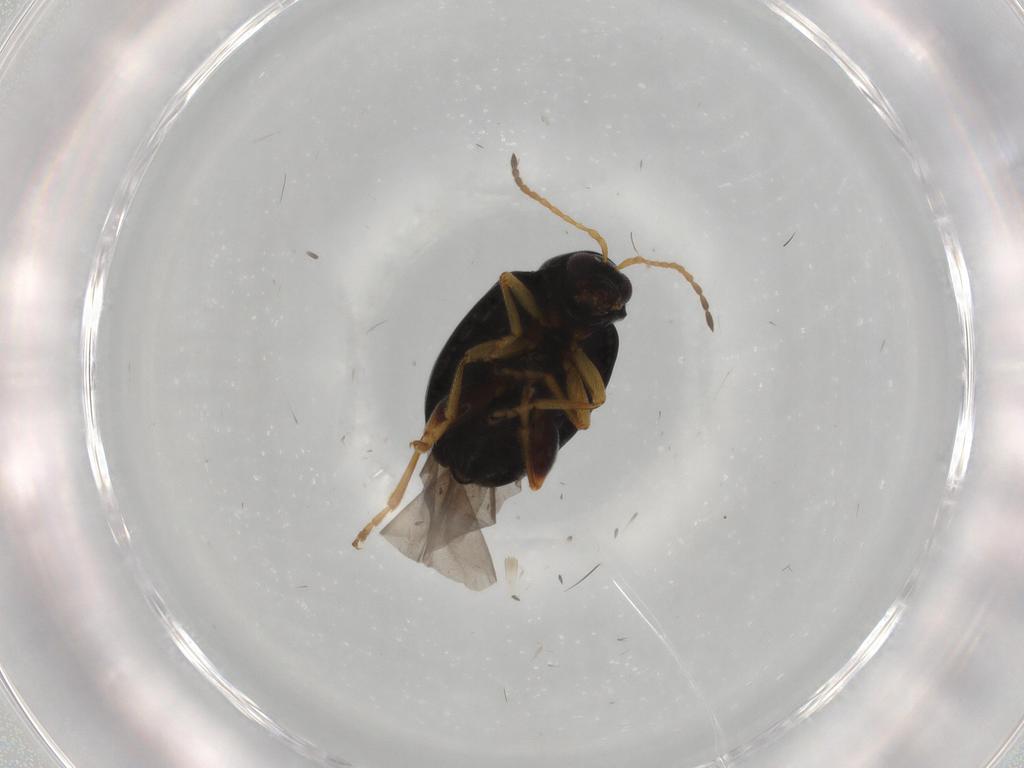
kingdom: Animalia
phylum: Arthropoda
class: Insecta
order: Coleoptera
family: Chrysomelidae
